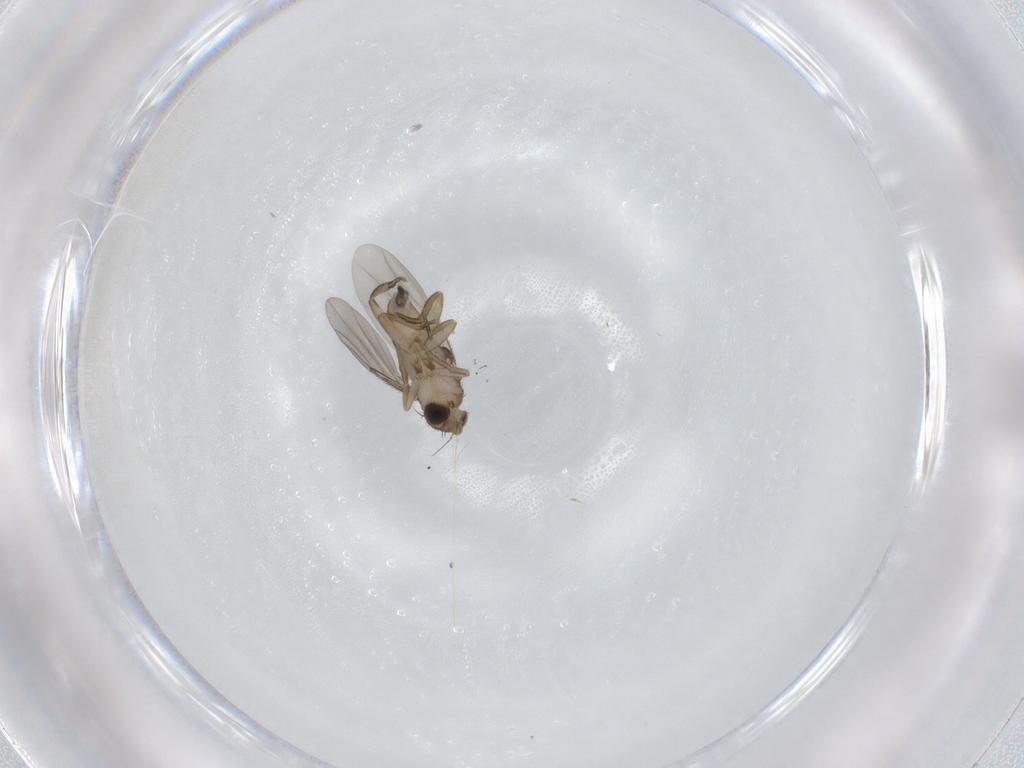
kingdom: Animalia
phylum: Arthropoda
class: Insecta
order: Diptera
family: Phoridae
